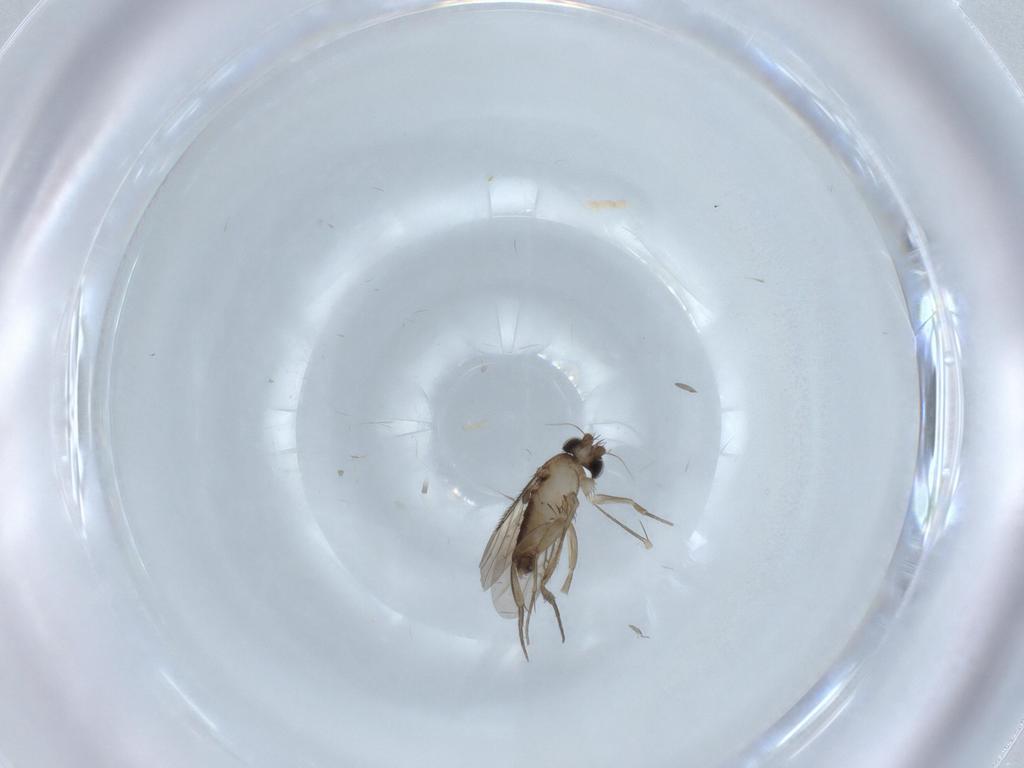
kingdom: Animalia
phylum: Arthropoda
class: Insecta
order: Diptera
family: Phoridae
